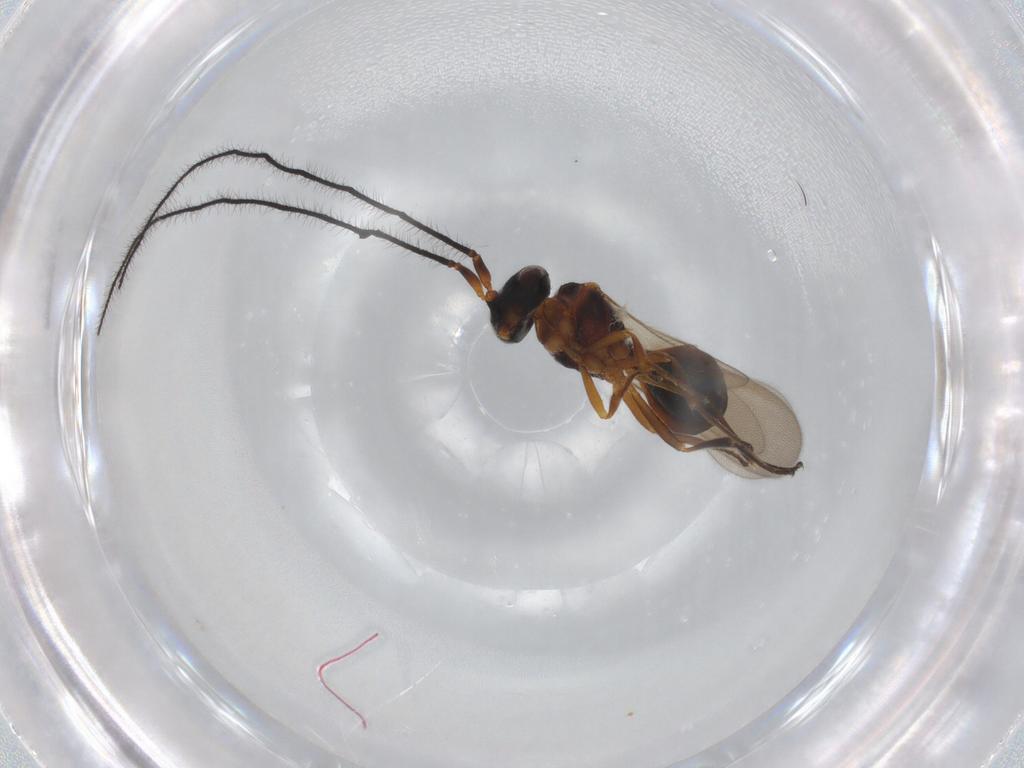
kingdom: Animalia
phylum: Arthropoda
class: Insecta
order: Hymenoptera
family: Scelionidae
